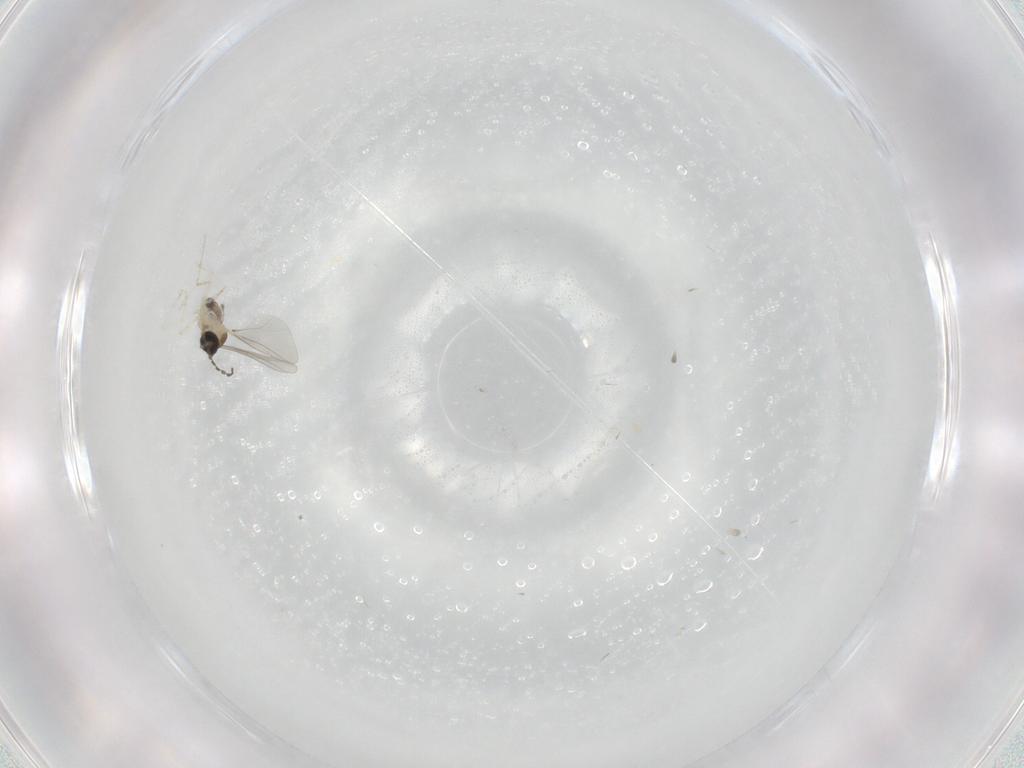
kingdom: Animalia
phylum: Arthropoda
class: Insecta
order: Diptera
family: Cecidomyiidae
